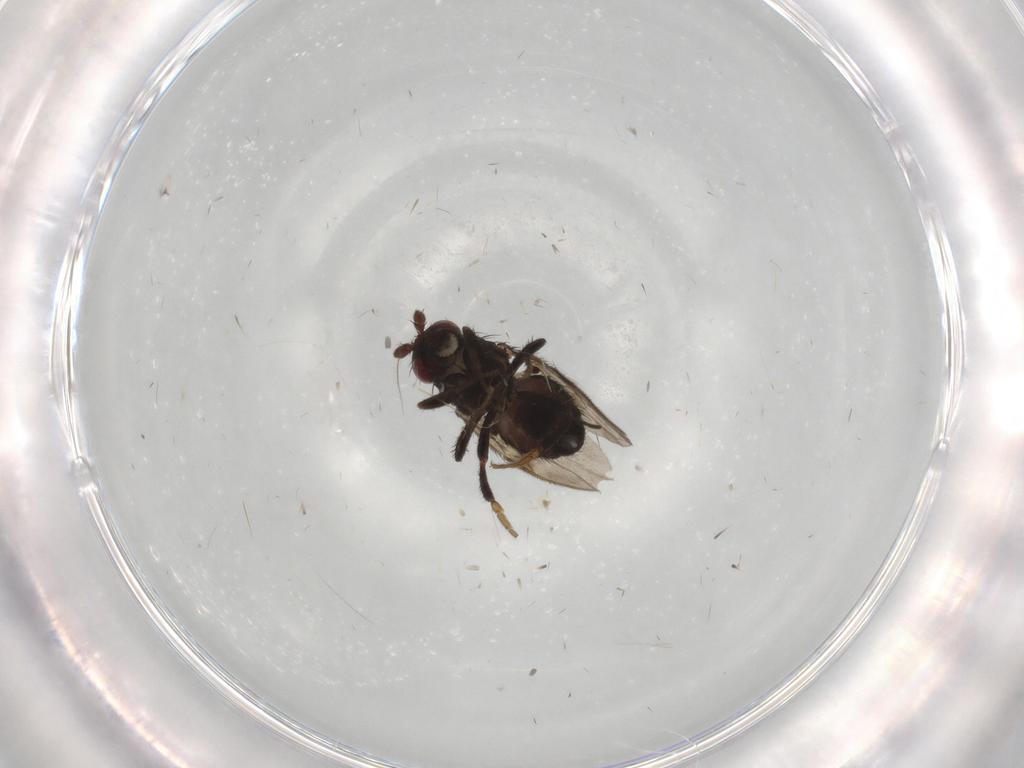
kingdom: Animalia
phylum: Arthropoda
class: Insecta
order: Diptera
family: Sphaeroceridae
